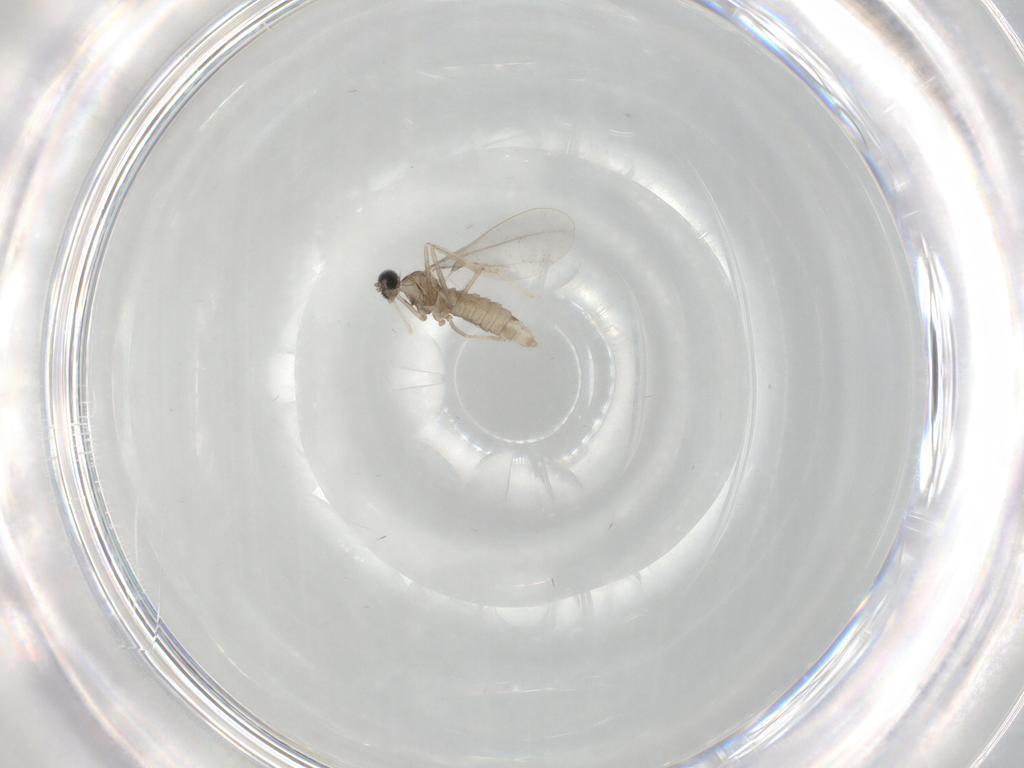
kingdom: Animalia
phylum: Arthropoda
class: Insecta
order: Diptera
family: Cecidomyiidae
